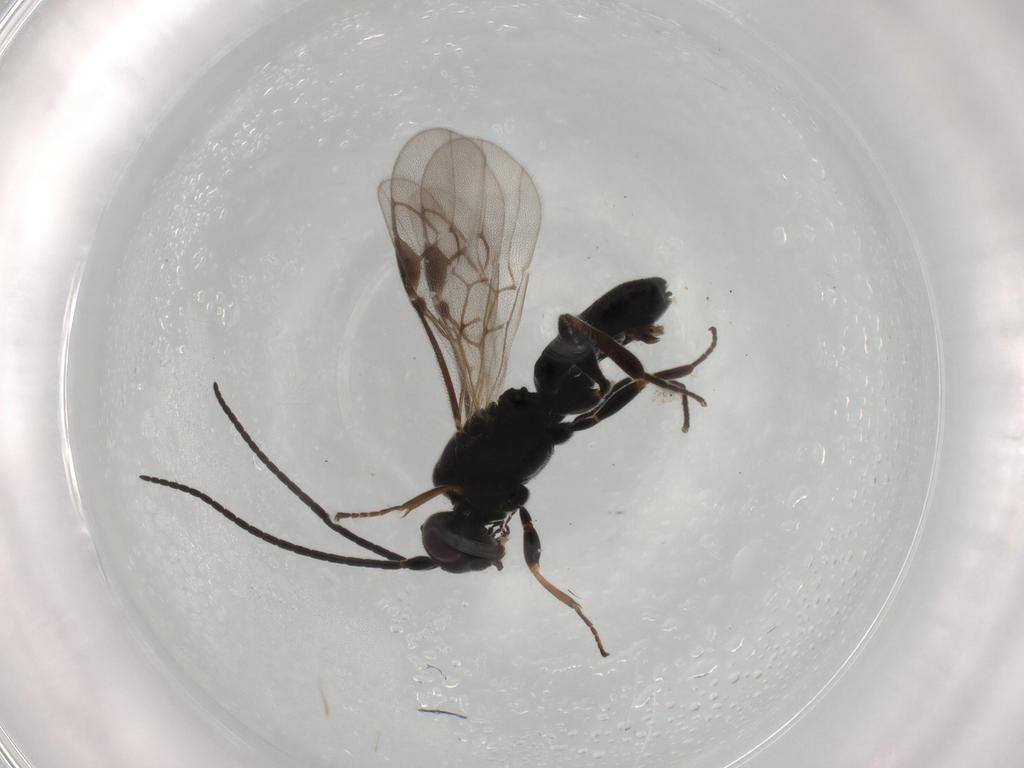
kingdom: Animalia
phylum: Arthropoda
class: Insecta
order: Hymenoptera
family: Braconidae
